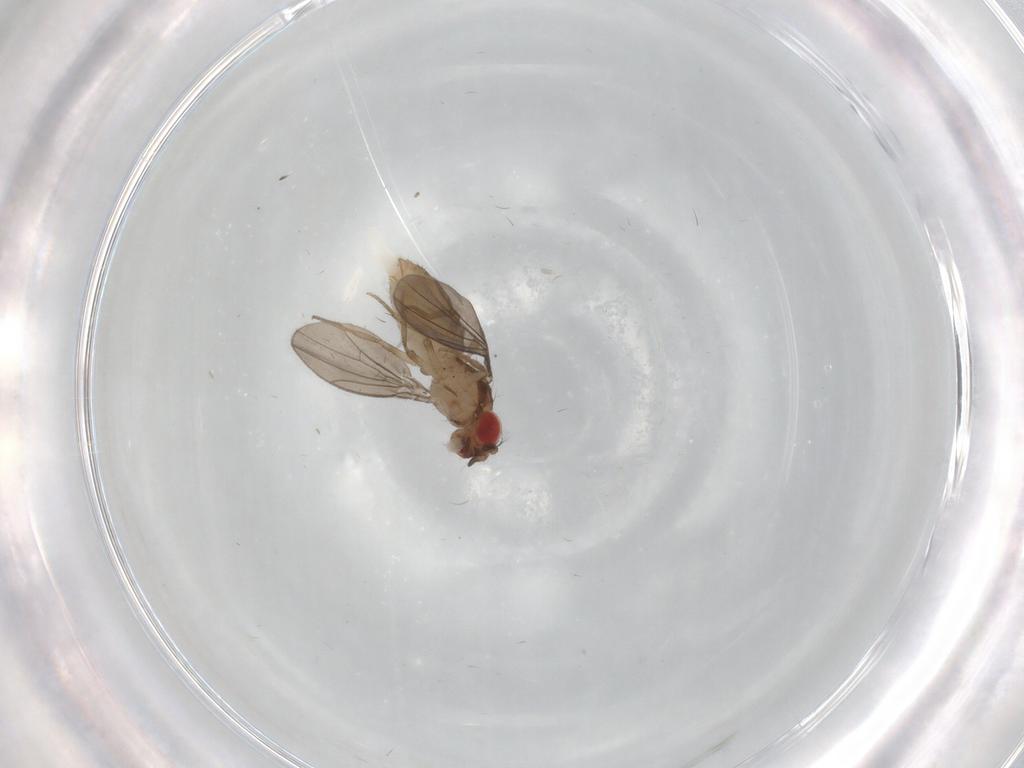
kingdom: Animalia
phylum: Arthropoda
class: Insecta
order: Diptera
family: Drosophilidae
